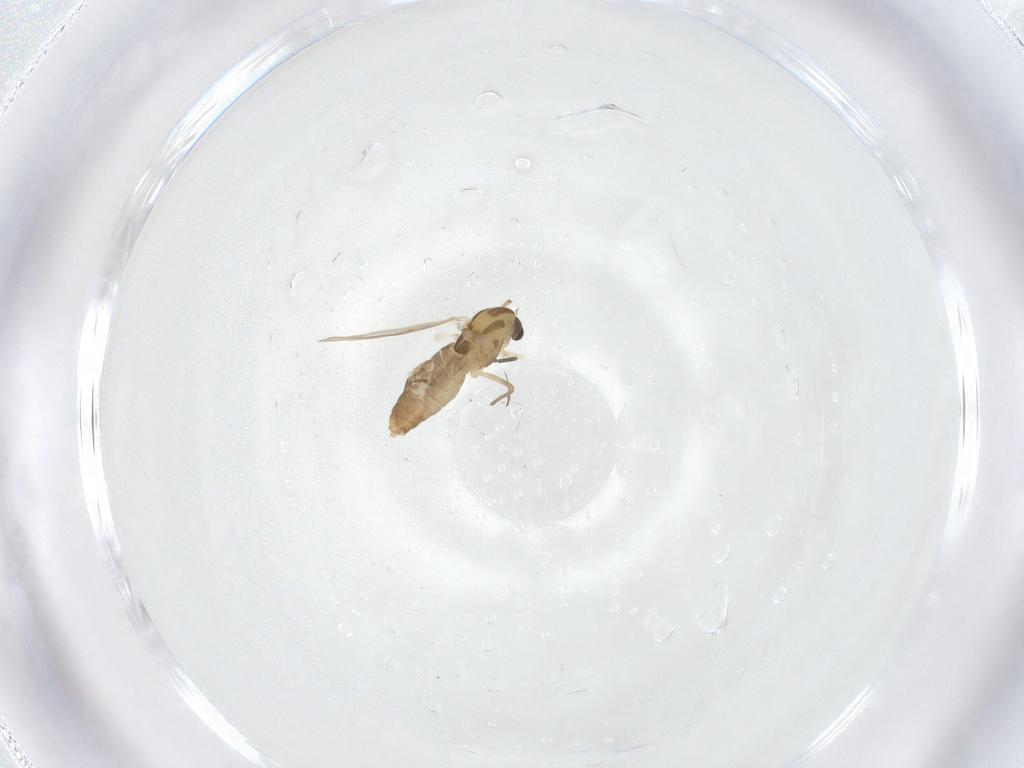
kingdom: Animalia
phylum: Arthropoda
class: Insecta
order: Diptera
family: Chironomidae
